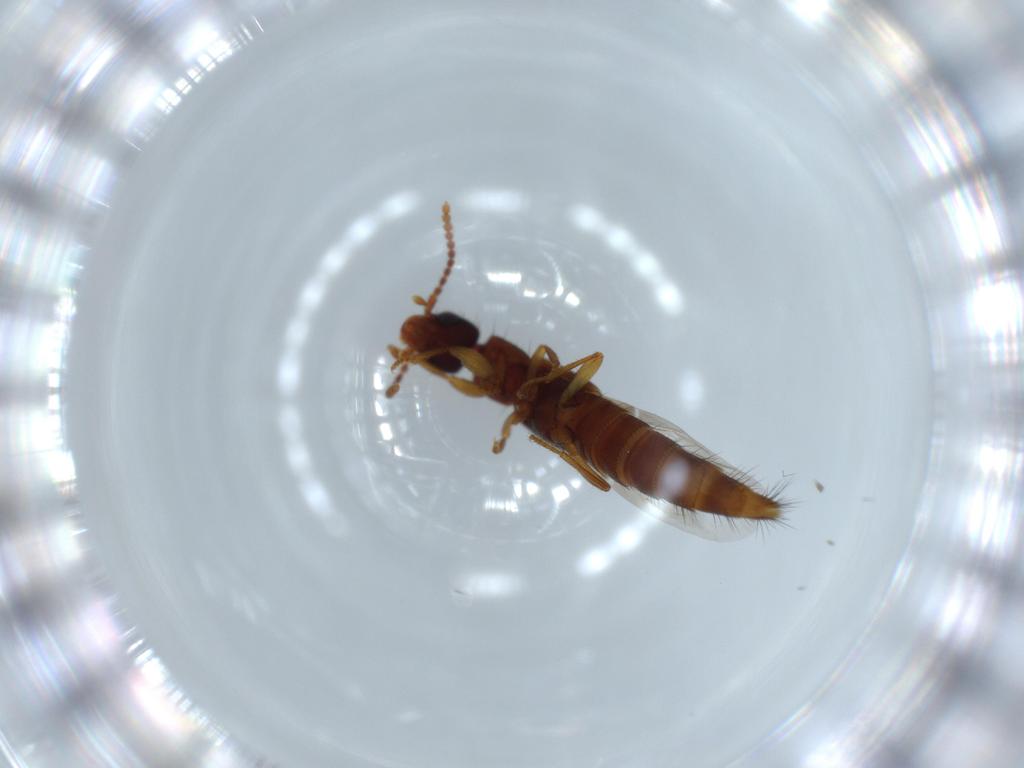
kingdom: Animalia
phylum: Arthropoda
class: Insecta
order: Coleoptera
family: Staphylinidae
